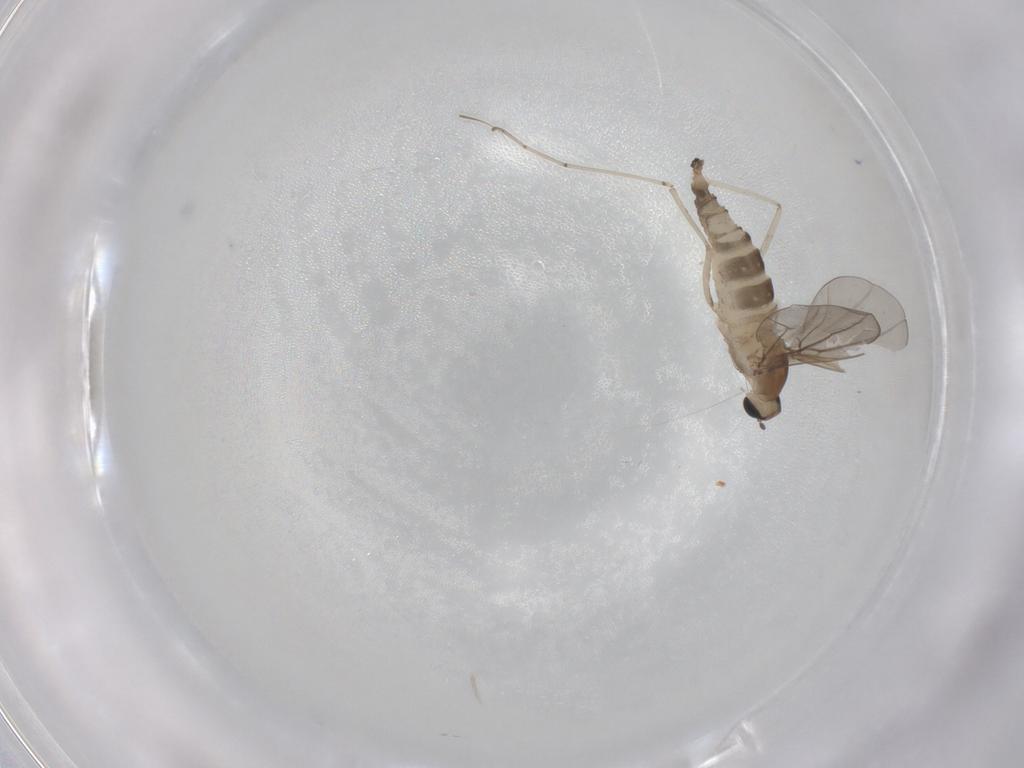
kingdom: Animalia
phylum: Arthropoda
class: Insecta
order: Diptera
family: Cecidomyiidae
